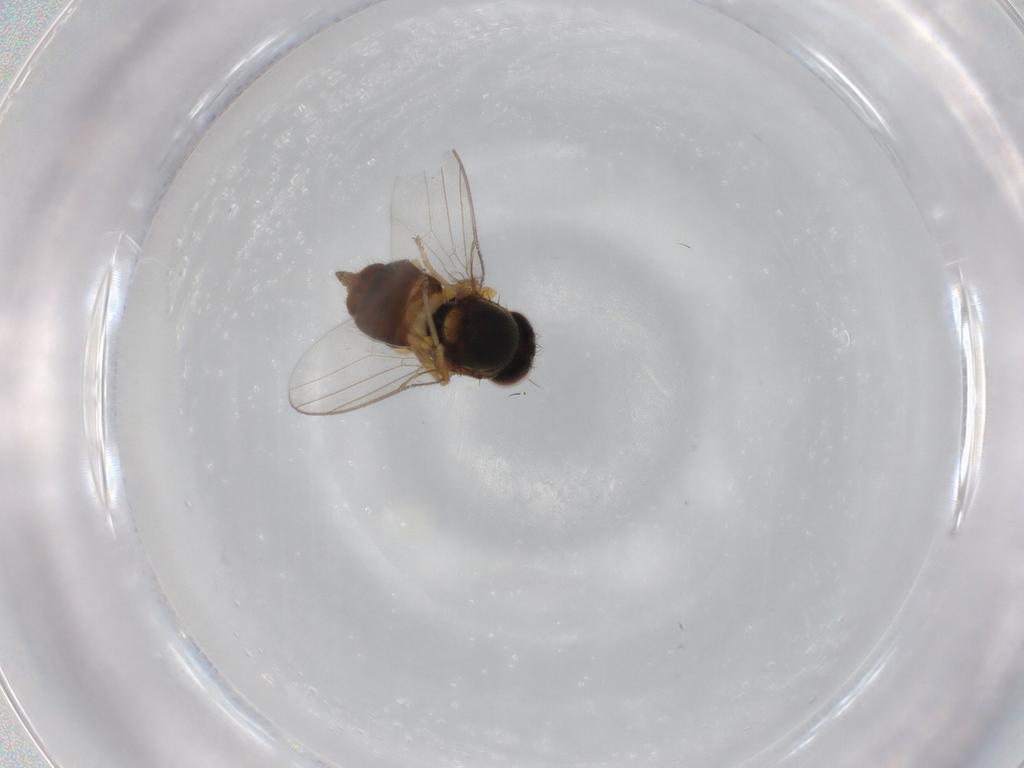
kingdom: Animalia
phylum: Arthropoda
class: Insecta
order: Diptera
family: Chloropidae
